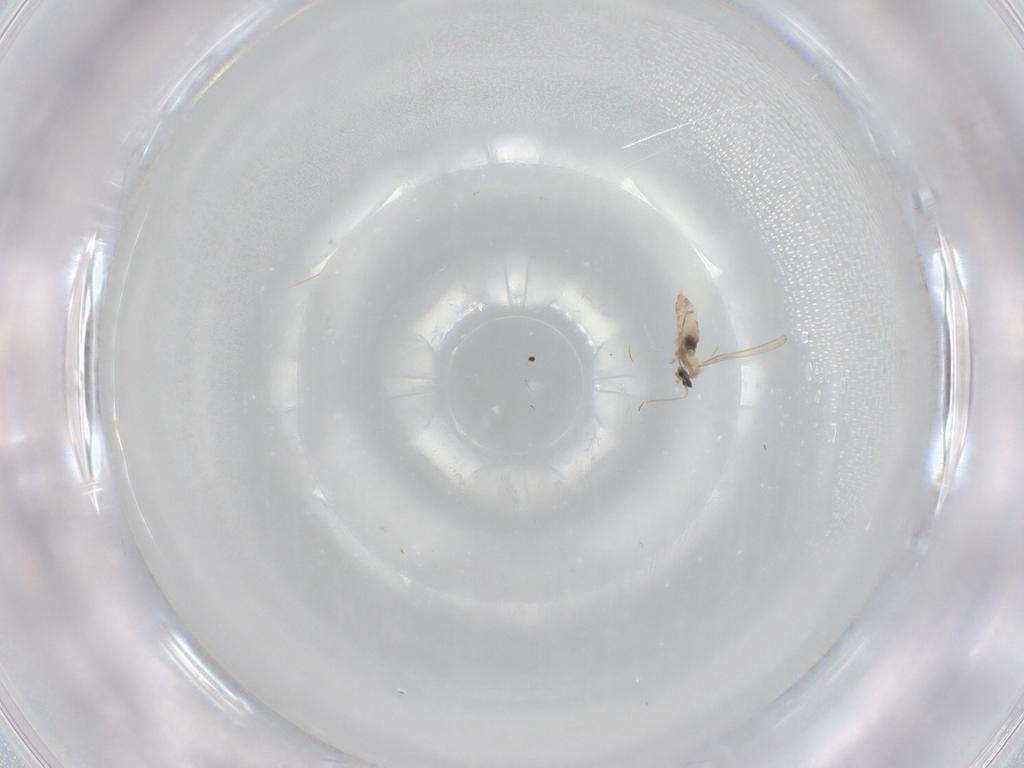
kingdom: Animalia
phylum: Arthropoda
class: Insecta
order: Diptera
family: Cecidomyiidae
